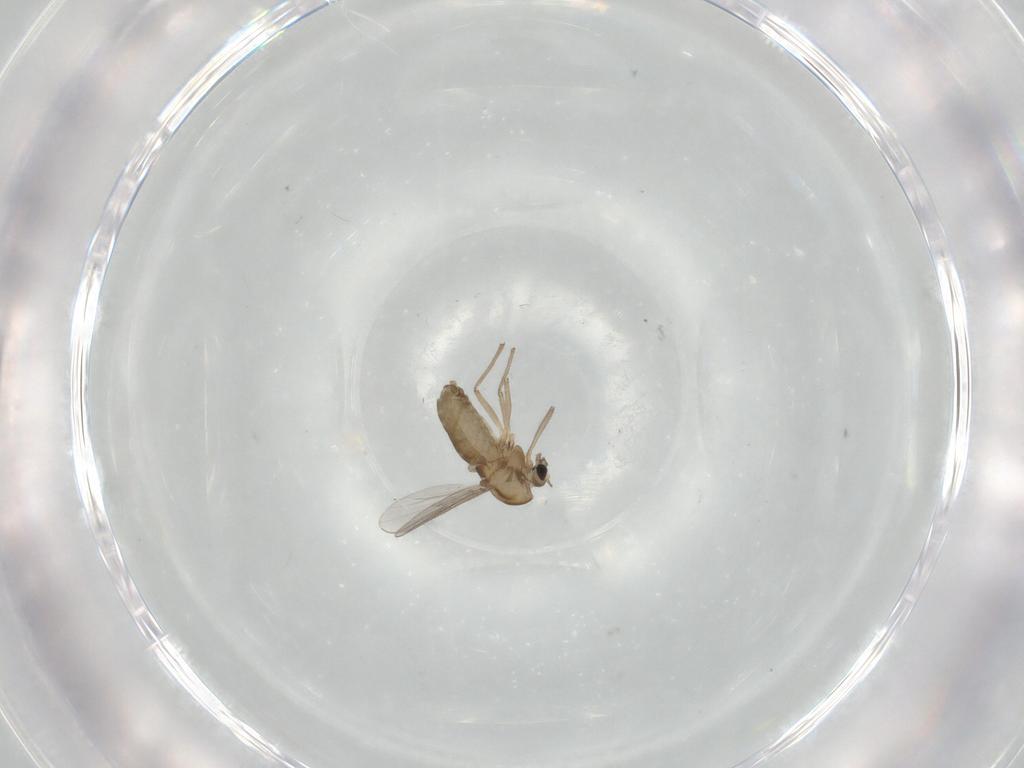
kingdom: Animalia
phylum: Arthropoda
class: Insecta
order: Diptera
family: Chironomidae
